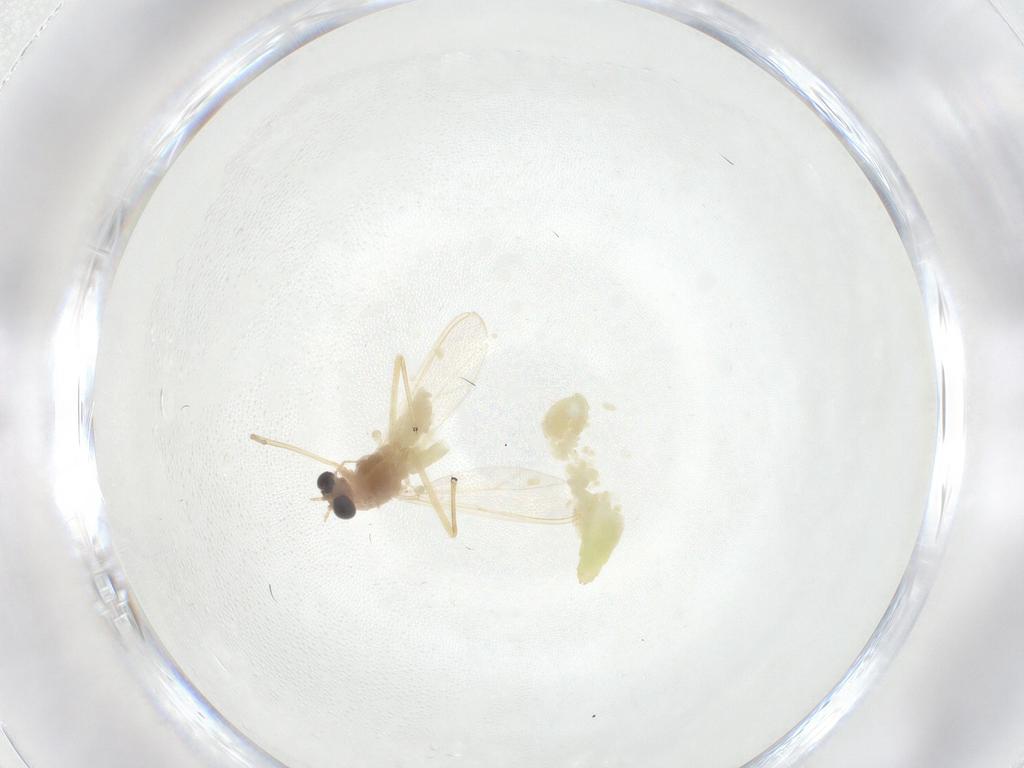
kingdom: Animalia
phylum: Arthropoda
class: Insecta
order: Diptera
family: Chironomidae
